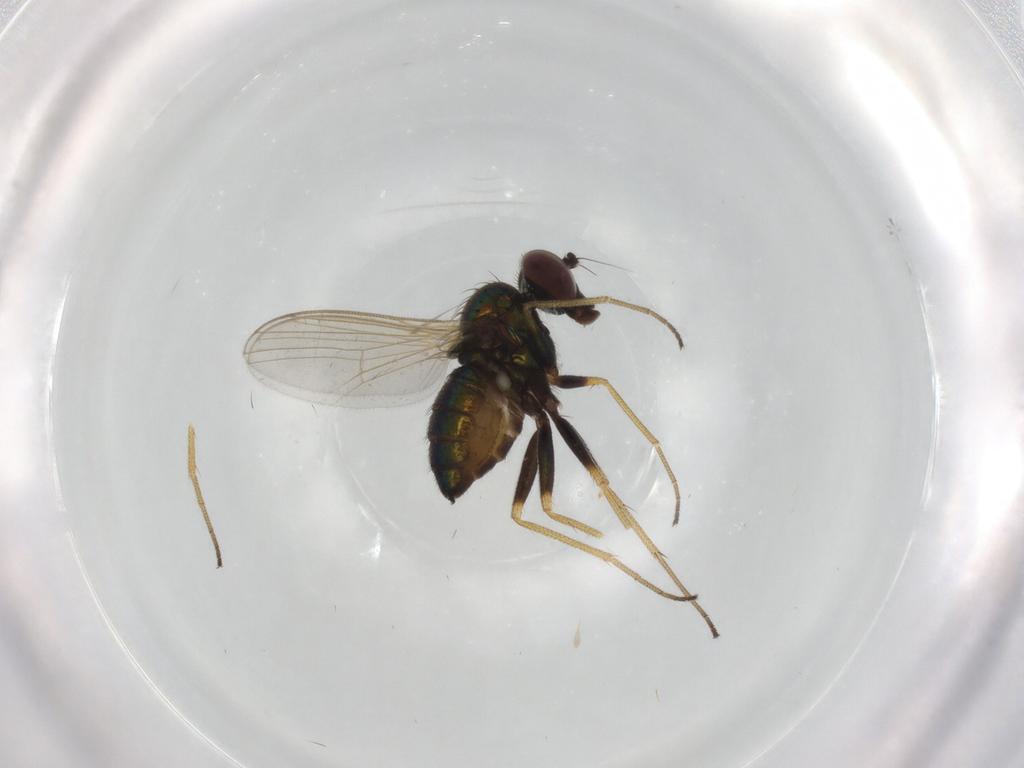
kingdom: Animalia
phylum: Arthropoda
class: Insecta
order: Diptera
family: Dolichopodidae
